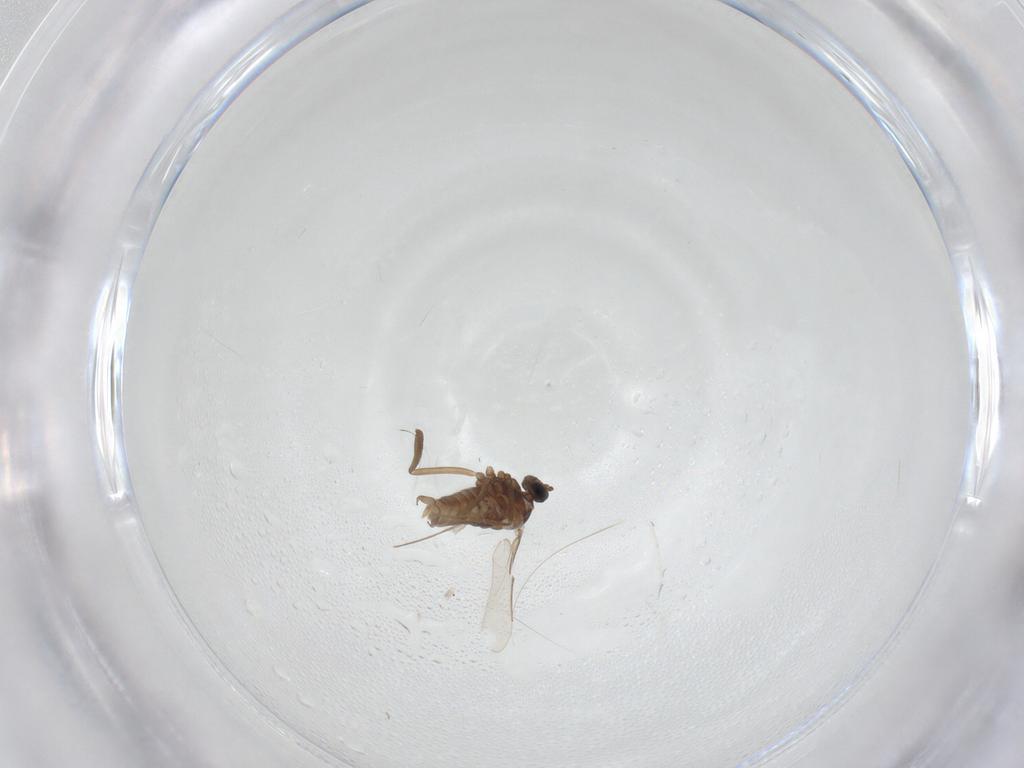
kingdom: Animalia
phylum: Arthropoda
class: Insecta
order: Diptera
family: Cecidomyiidae
